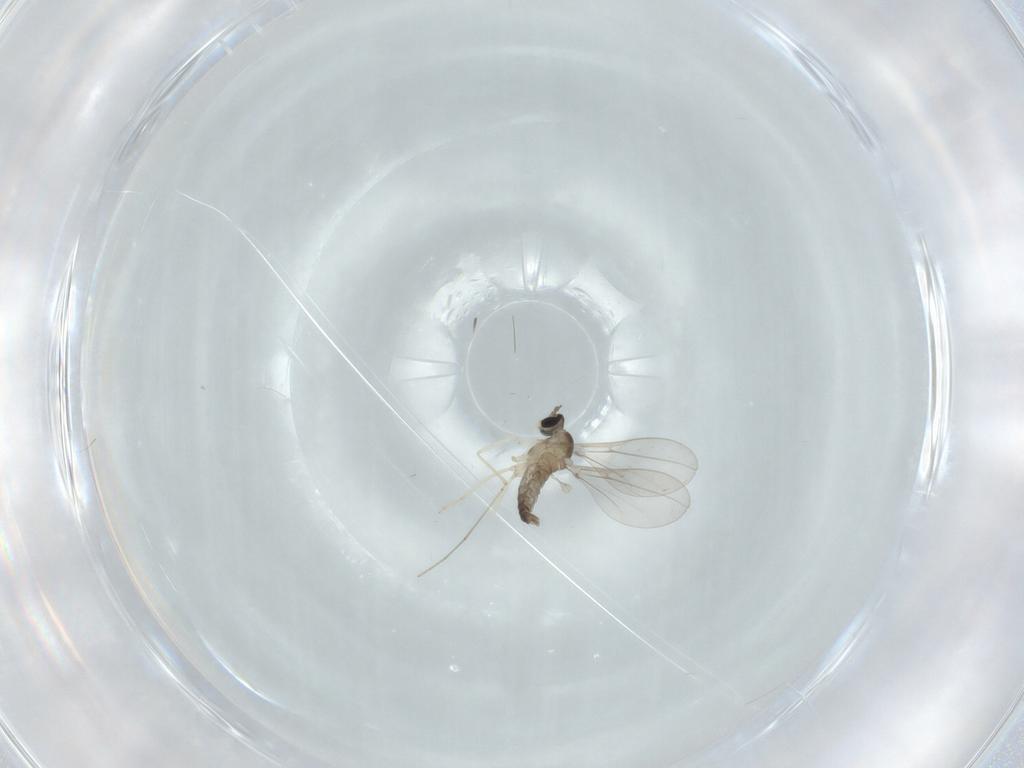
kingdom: Animalia
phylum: Arthropoda
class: Insecta
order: Diptera
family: Cecidomyiidae
